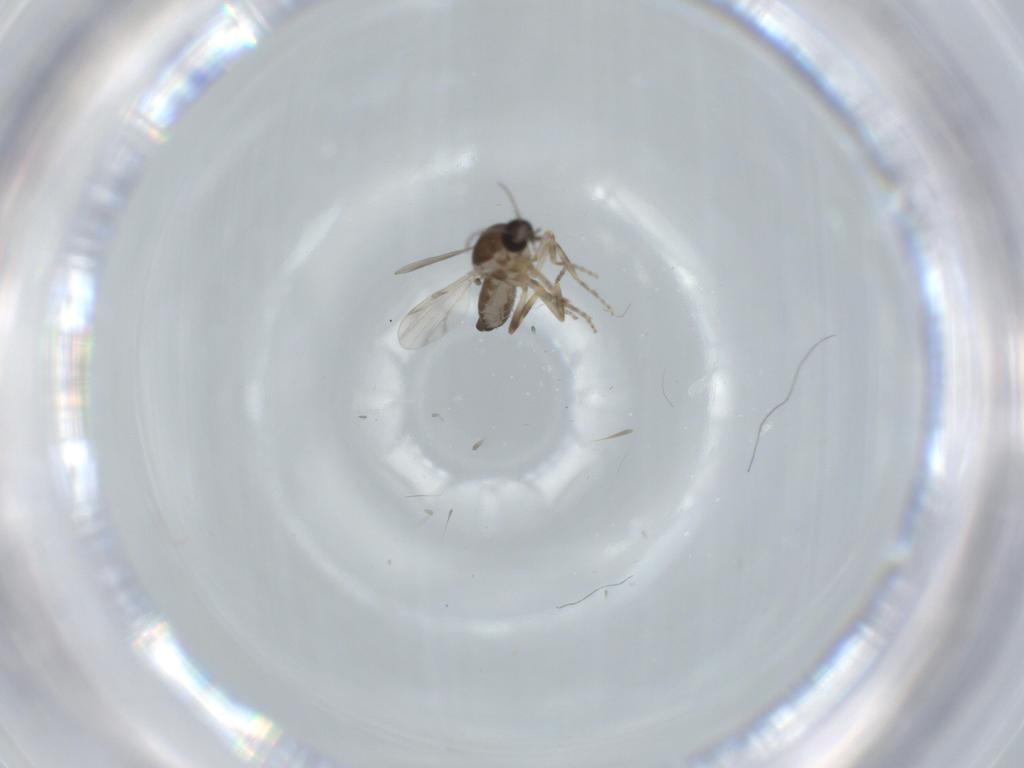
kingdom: Animalia
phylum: Arthropoda
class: Insecta
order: Diptera
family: Ceratopogonidae
